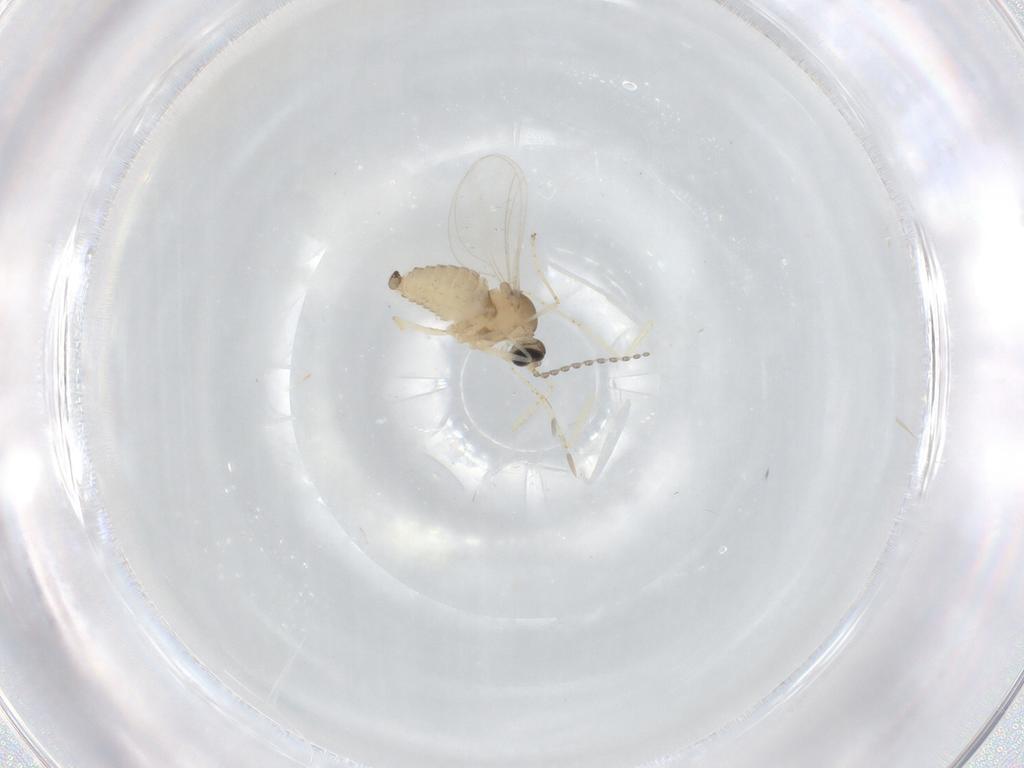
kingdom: Animalia
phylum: Arthropoda
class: Insecta
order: Diptera
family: Cecidomyiidae
